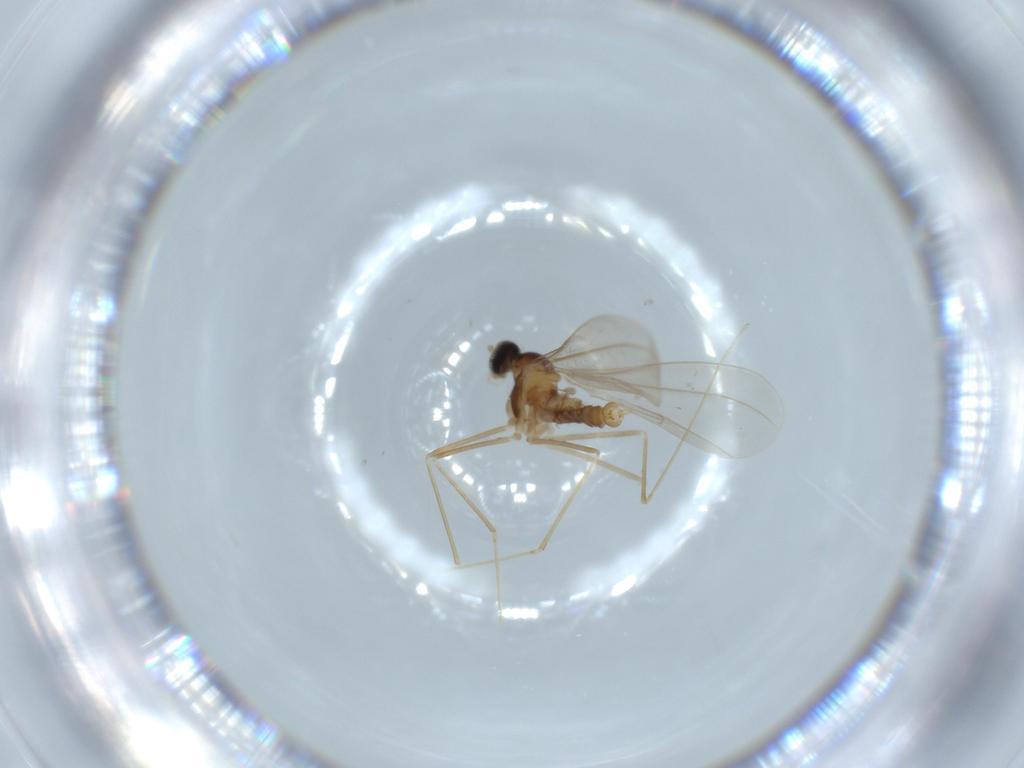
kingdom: Animalia
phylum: Arthropoda
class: Insecta
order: Diptera
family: Cecidomyiidae
